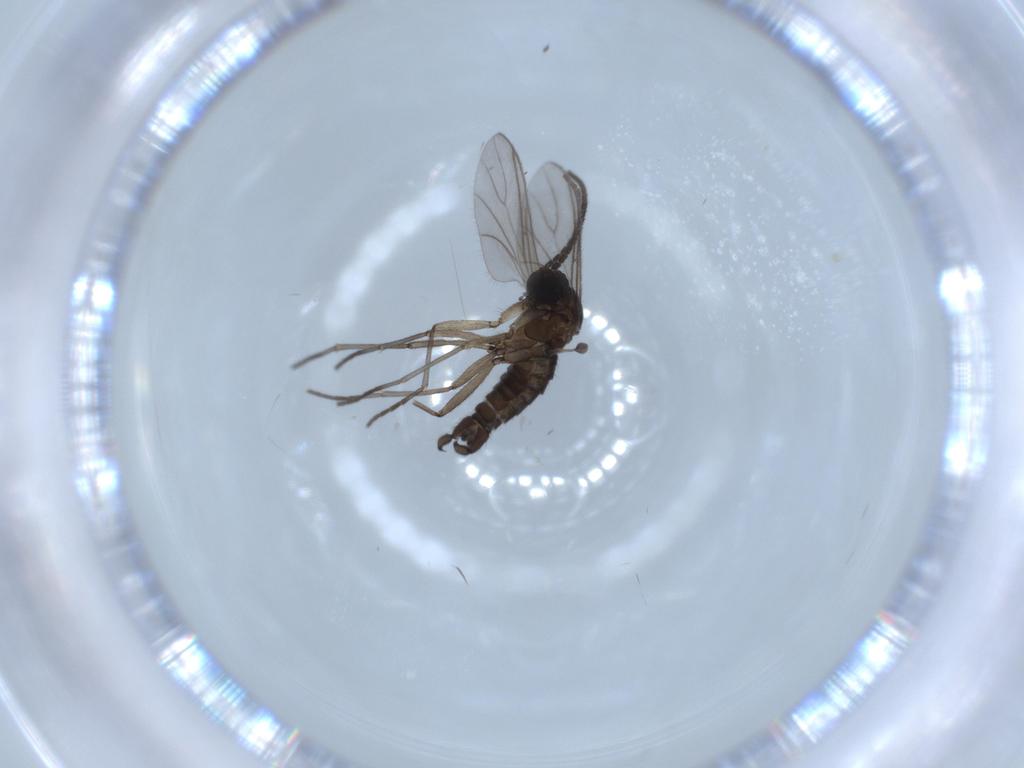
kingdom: Animalia
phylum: Arthropoda
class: Insecta
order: Diptera
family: Sciaridae
